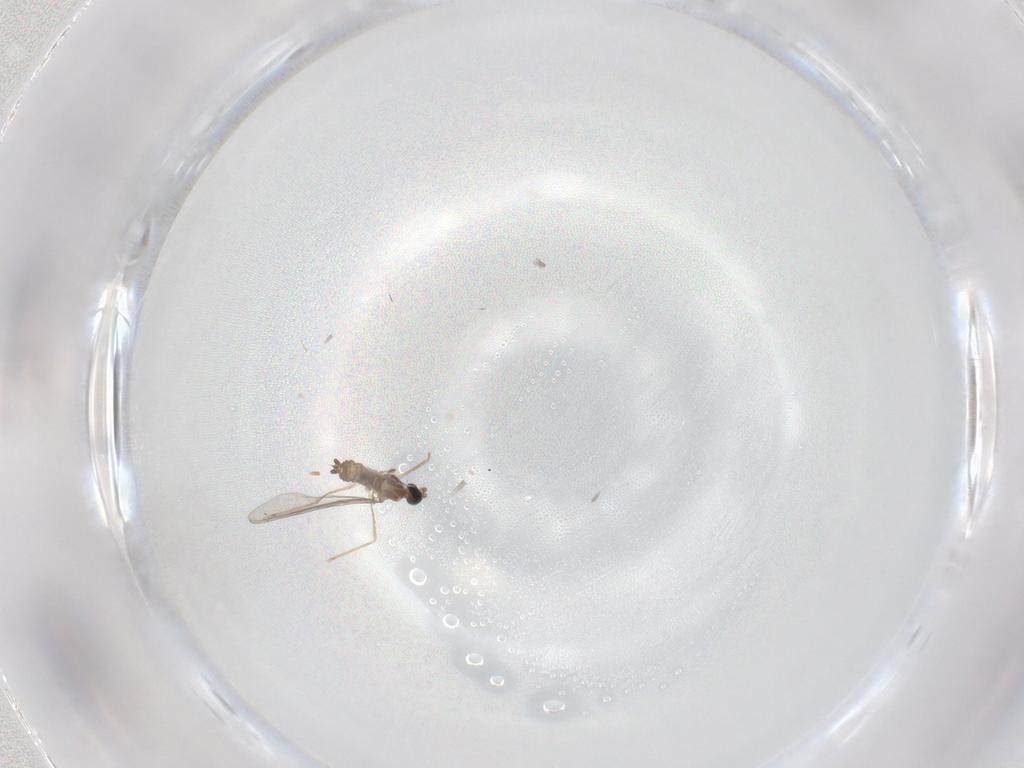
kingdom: Animalia
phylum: Arthropoda
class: Insecta
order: Diptera
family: Cecidomyiidae
